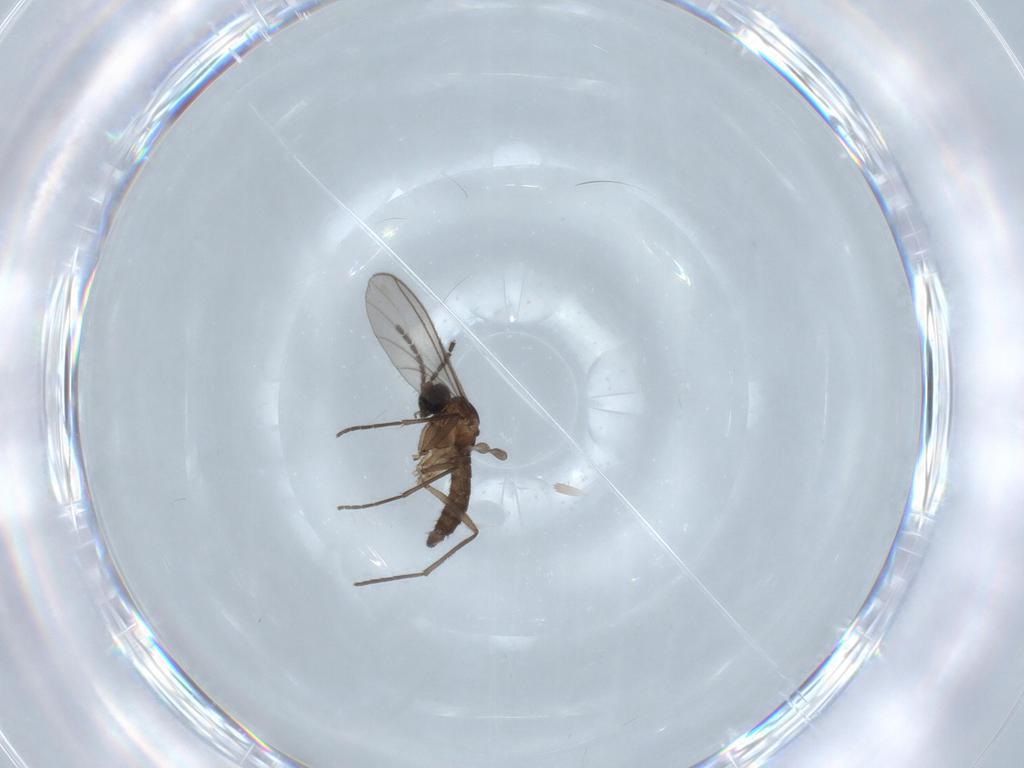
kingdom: Animalia
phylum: Arthropoda
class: Insecta
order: Diptera
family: Sciaridae
